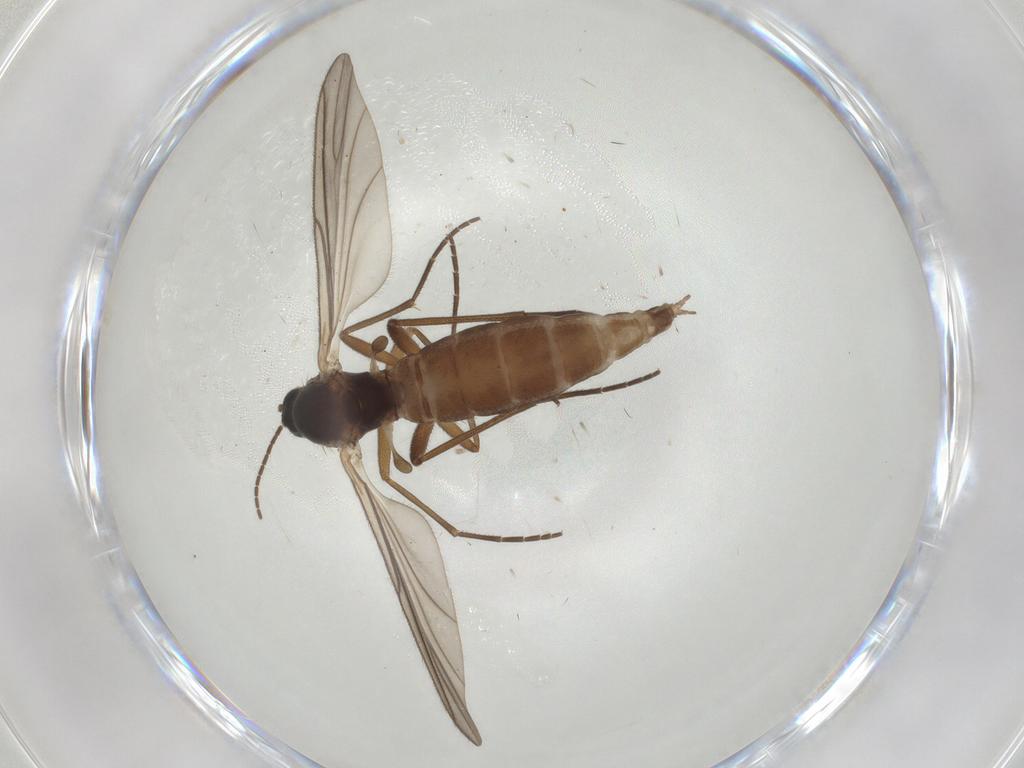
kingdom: Animalia
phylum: Arthropoda
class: Insecta
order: Diptera
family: Sciaridae
